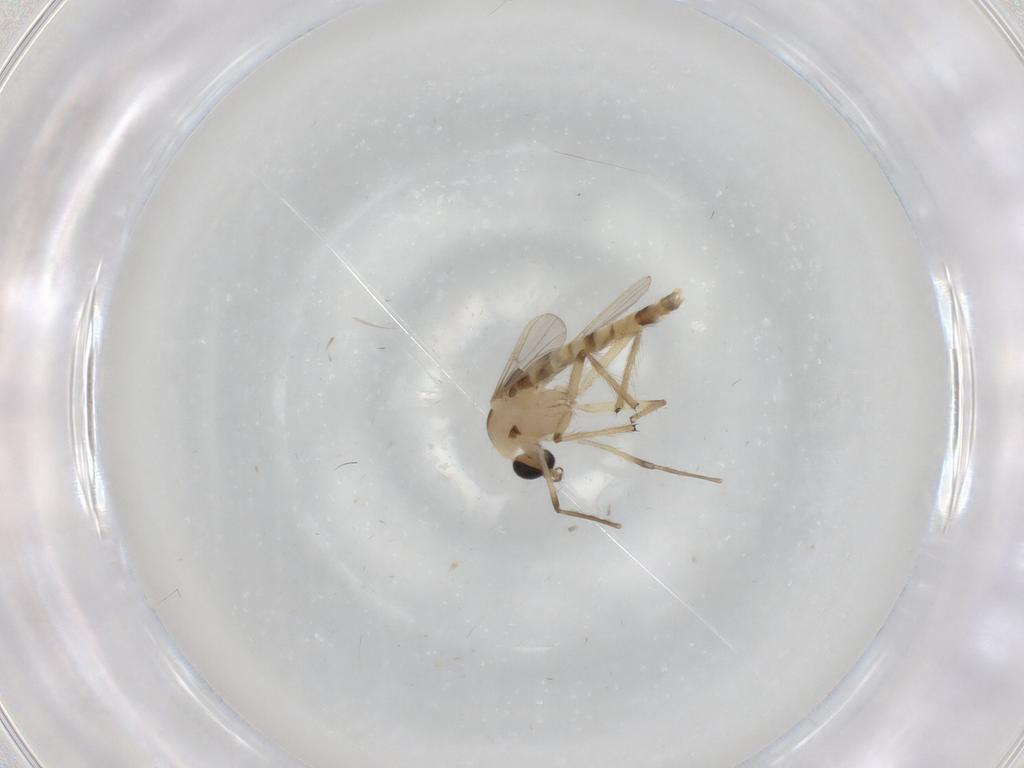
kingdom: Animalia
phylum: Arthropoda
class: Insecta
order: Diptera
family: Chironomidae
